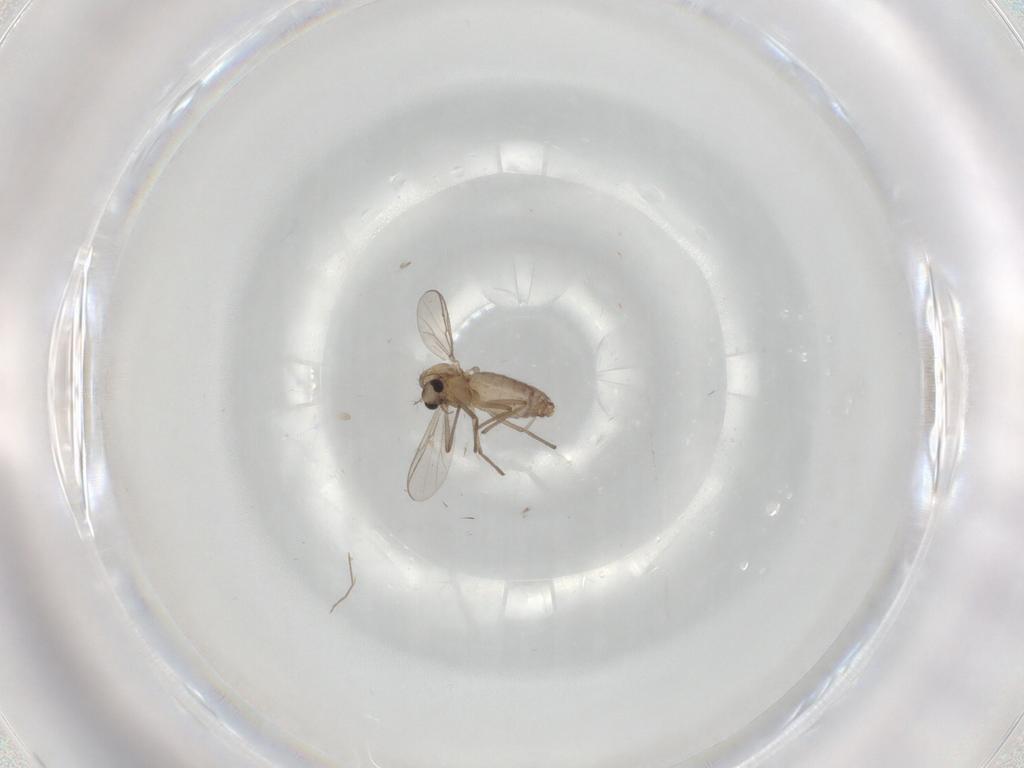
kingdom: Animalia
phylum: Arthropoda
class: Insecta
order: Diptera
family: Chironomidae
